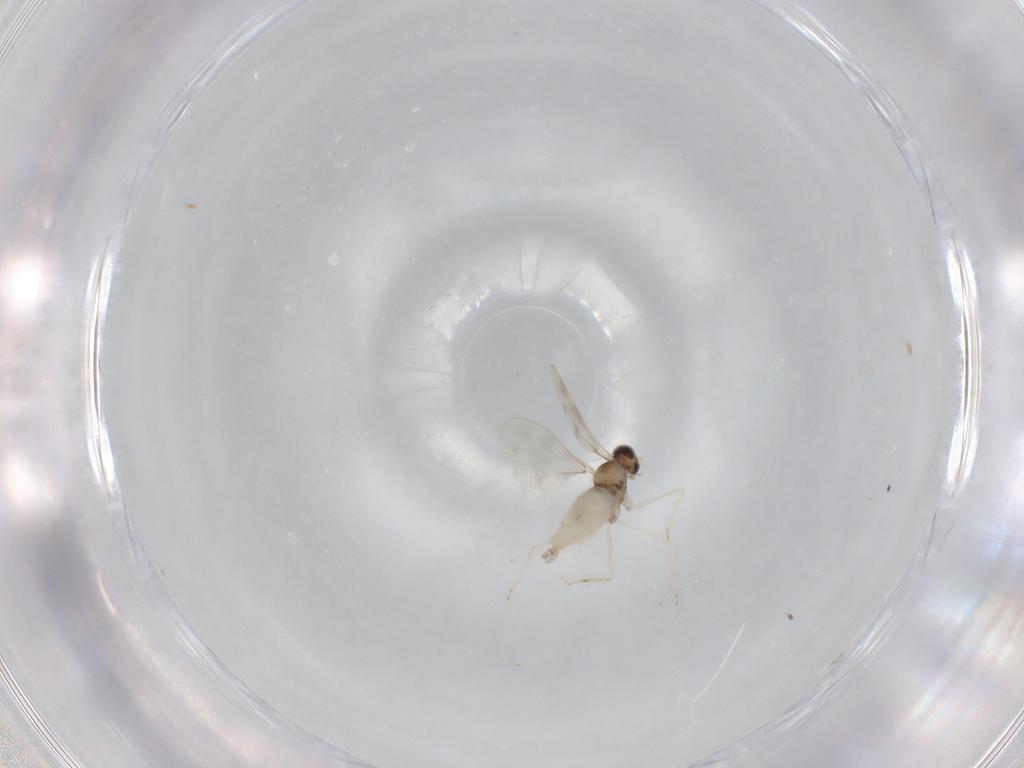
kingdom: Animalia
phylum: Arthropoda
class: Insecta
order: Diptera
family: Cecidomyiidae
